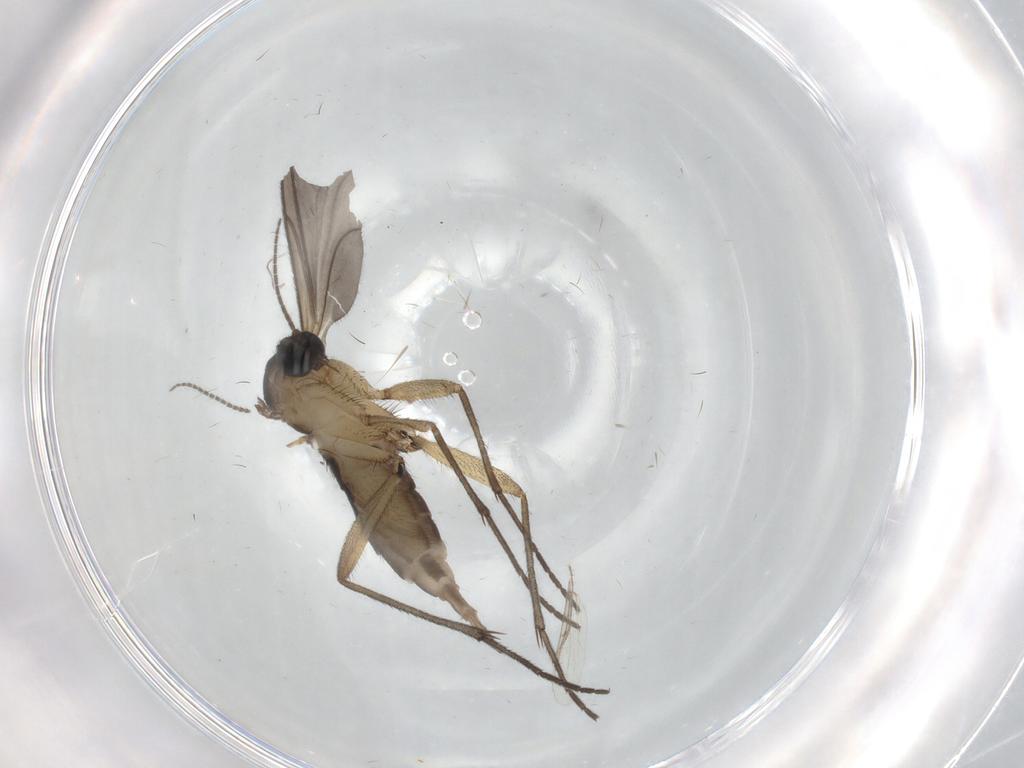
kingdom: Animalia
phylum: Arthropoda
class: Insecta
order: Diptera
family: Sciaridae
